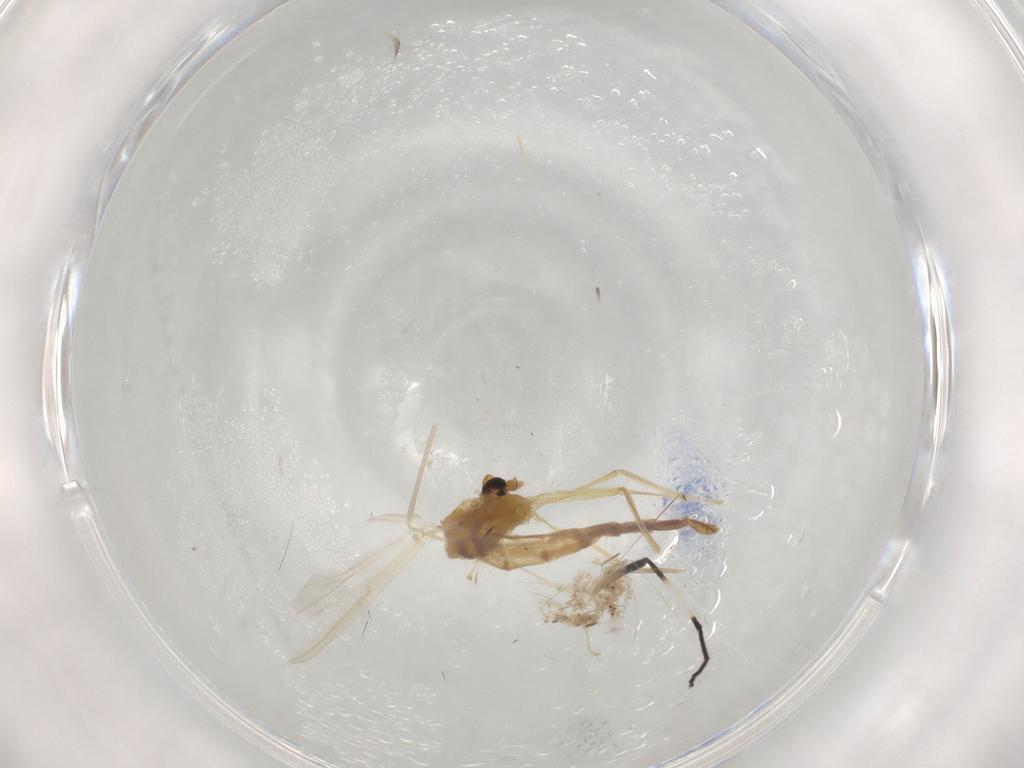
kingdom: Animalia
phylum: Arthropoda
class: Insecta
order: Diptera
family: Chironomidae
